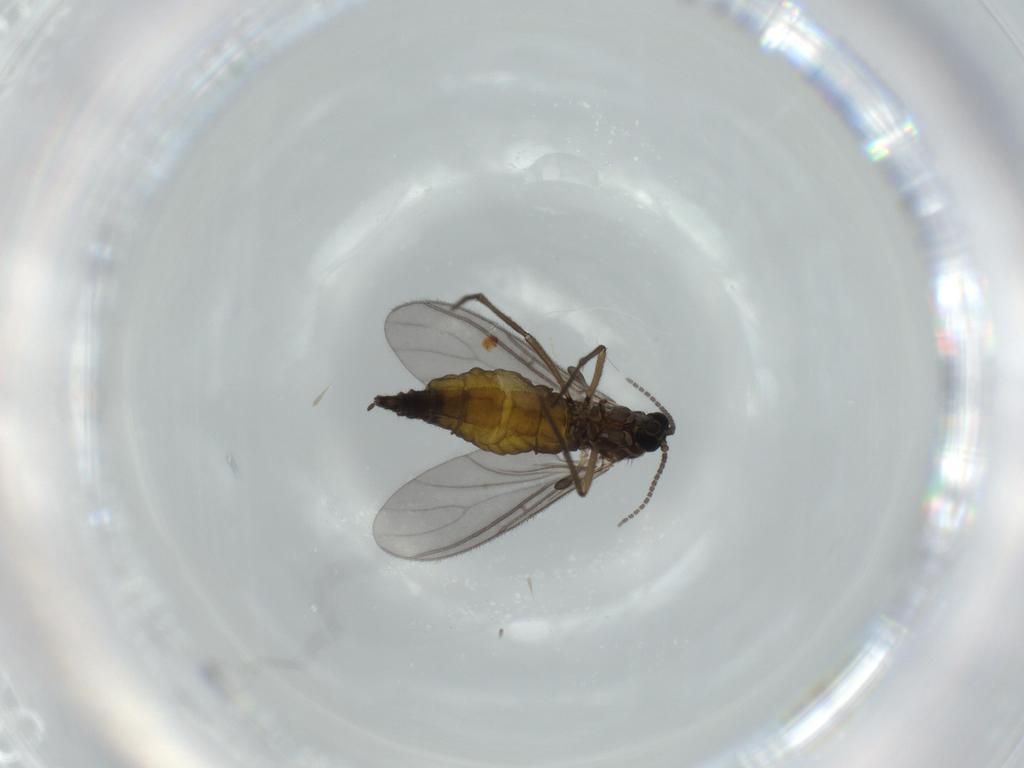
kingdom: Animalia
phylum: Arthropoda
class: Insecta
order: Diptera
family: Sciaridae
